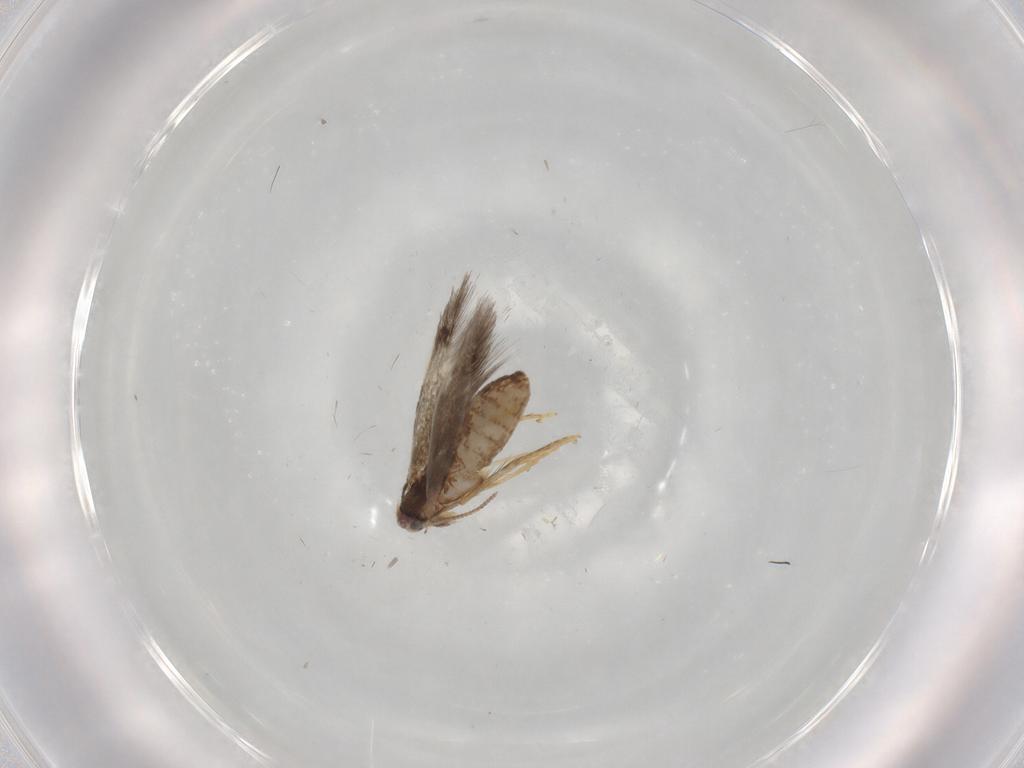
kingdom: Animalia
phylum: Arthropoda
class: Insecta
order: Lepidoptera
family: Nepticulidae
